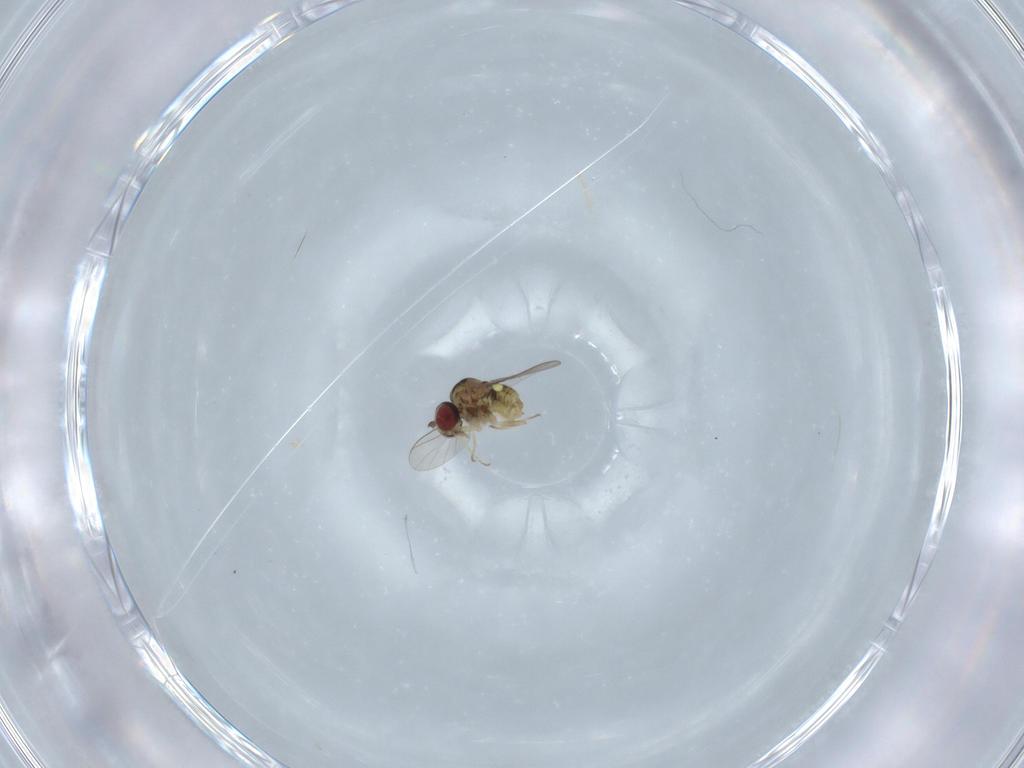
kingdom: Animalia
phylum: Arthropoda
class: Insecta
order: Diptera
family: Bombyliidae
